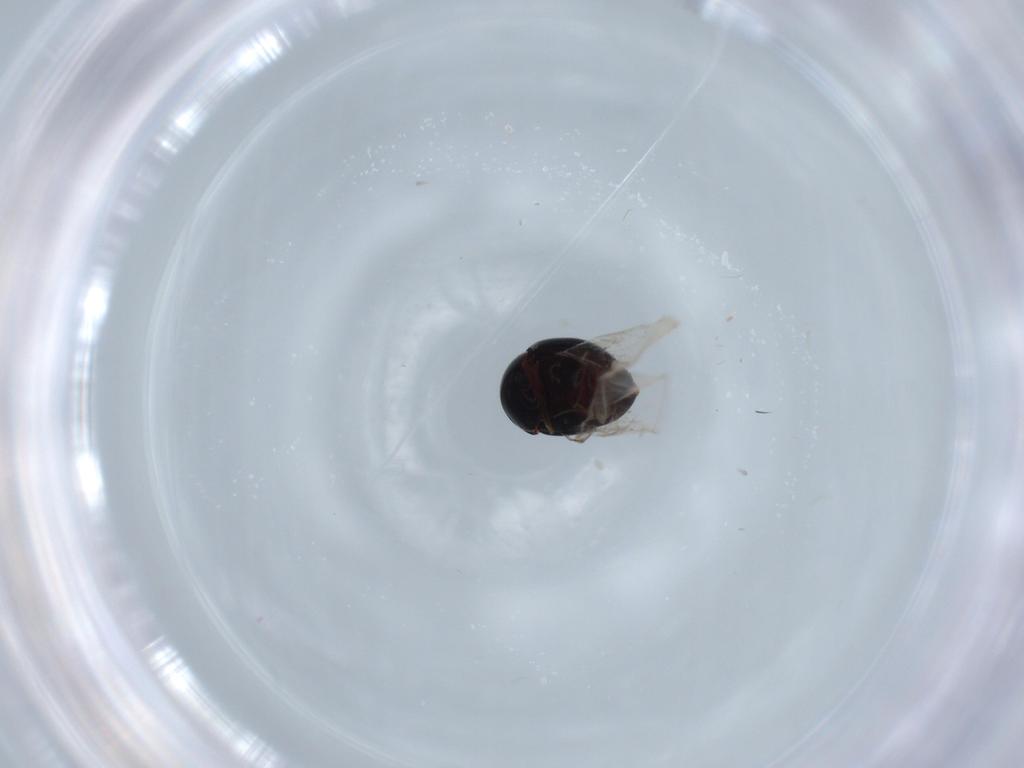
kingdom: Animalia
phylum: Arthropoda
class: Insecta
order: Coleoptera
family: Clambidae
